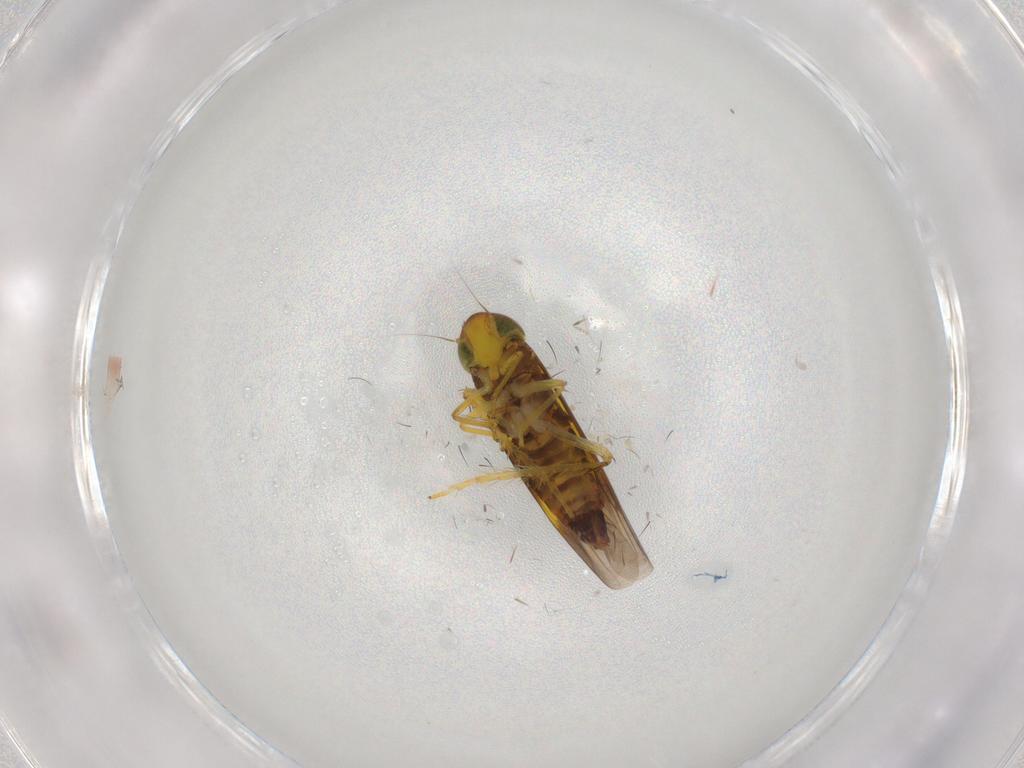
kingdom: Animalia
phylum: Arthropoda
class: Insecta
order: Hemiptera
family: Cicadellidae
